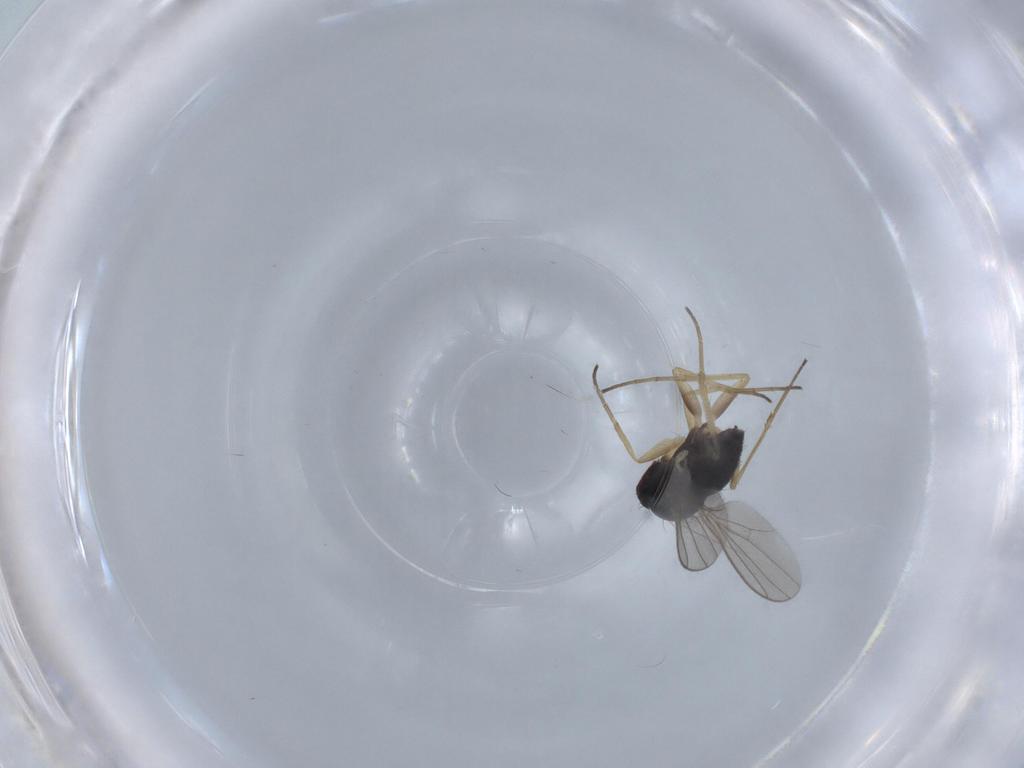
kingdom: Animalia
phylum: Arthropoda
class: Insecta
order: Diptera
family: Dolichopodidae
